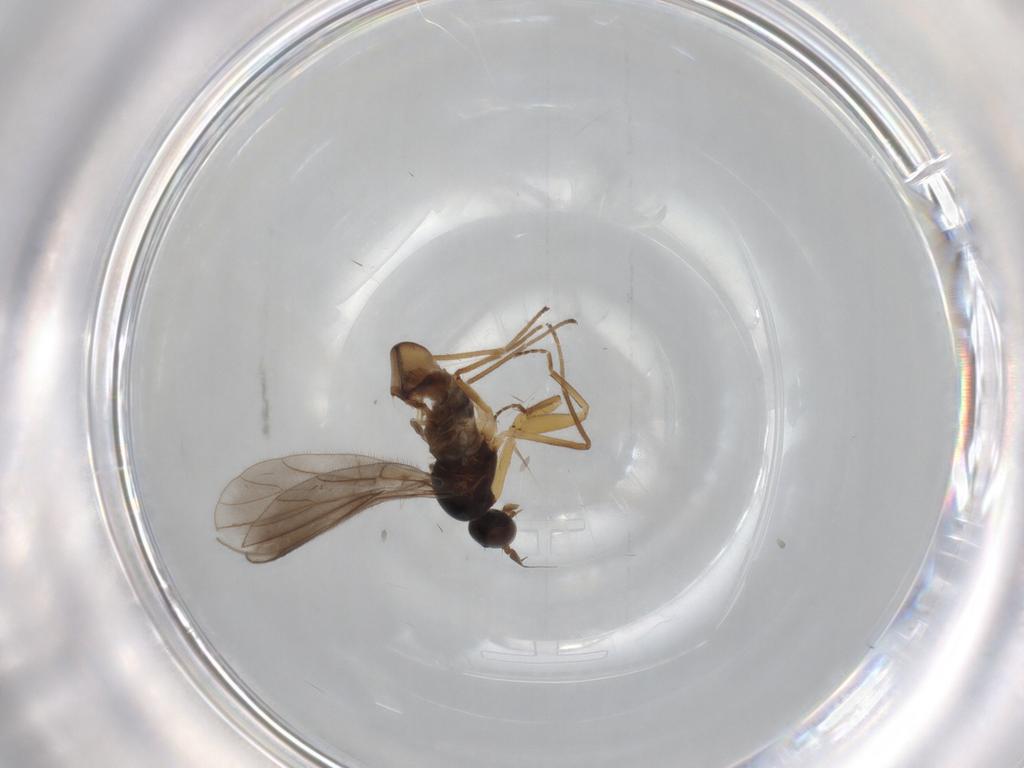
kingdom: Animalia
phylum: Arthropoda
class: Insecta
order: Diptera
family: Empididae
